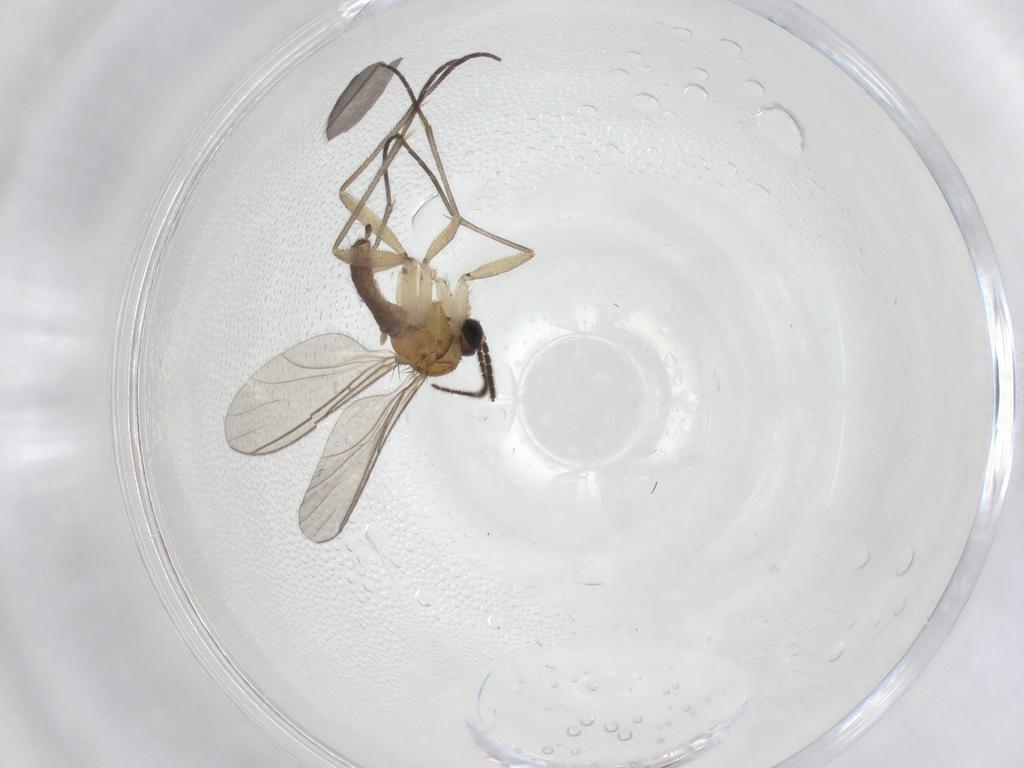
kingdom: Animalia
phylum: Arthropoda
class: Insecta
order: Diptera
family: Sciaridae
